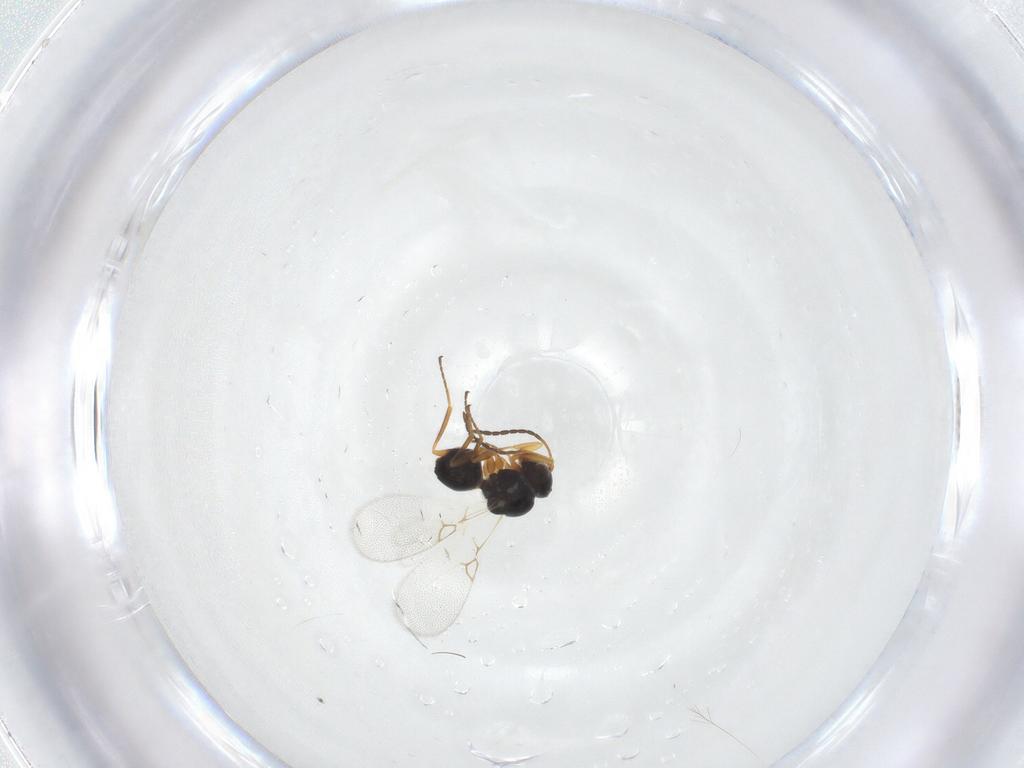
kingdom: Animalia
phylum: Arthropoda
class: Insecta
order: Hymenoptera
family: Figitidae
